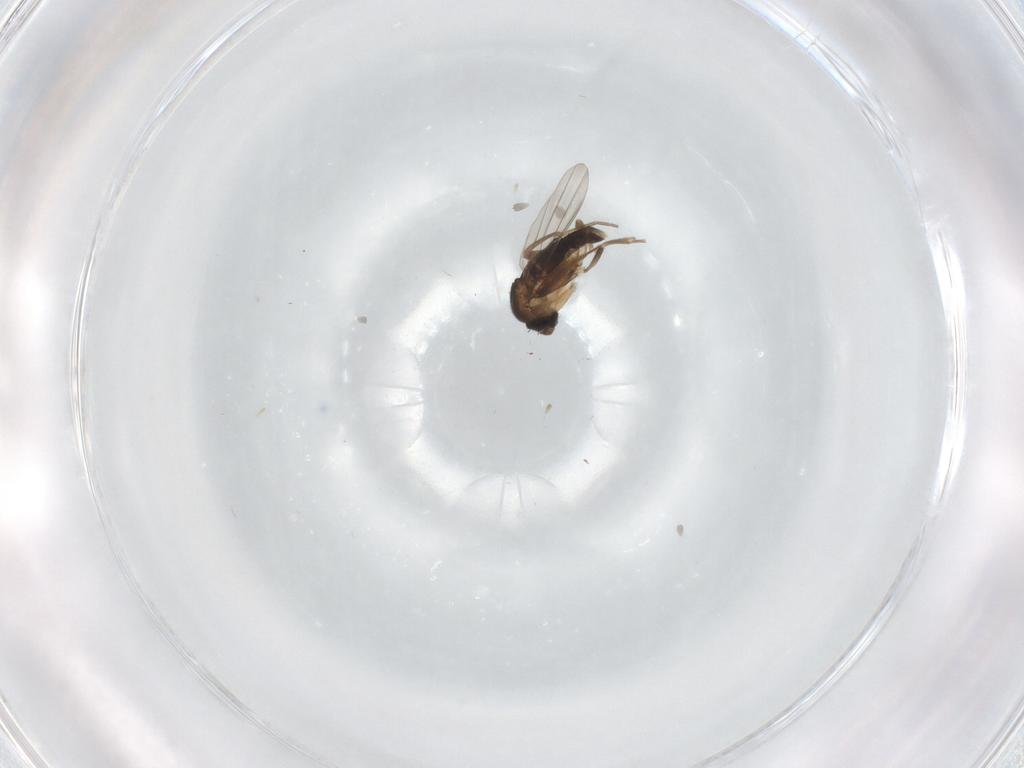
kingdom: Animalia
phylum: Arthropoda
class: Insecta
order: Diptera
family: Phoridae
